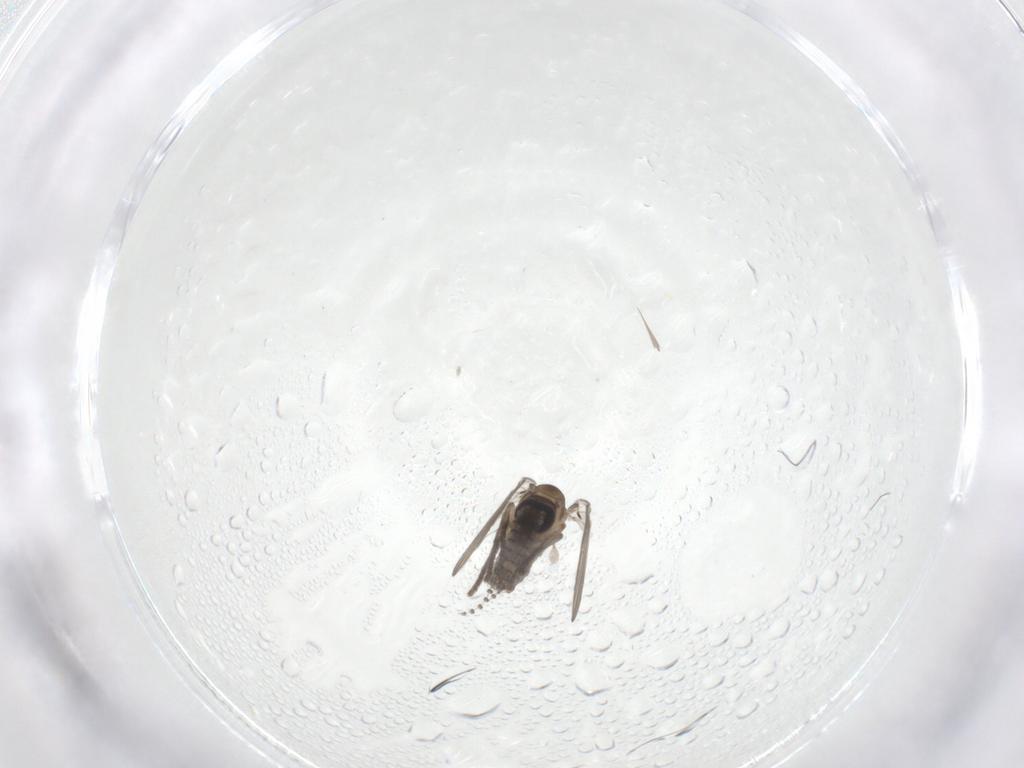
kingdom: Animalia
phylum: Arthropoda
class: Insecta
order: Diptera
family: Psychodidae
